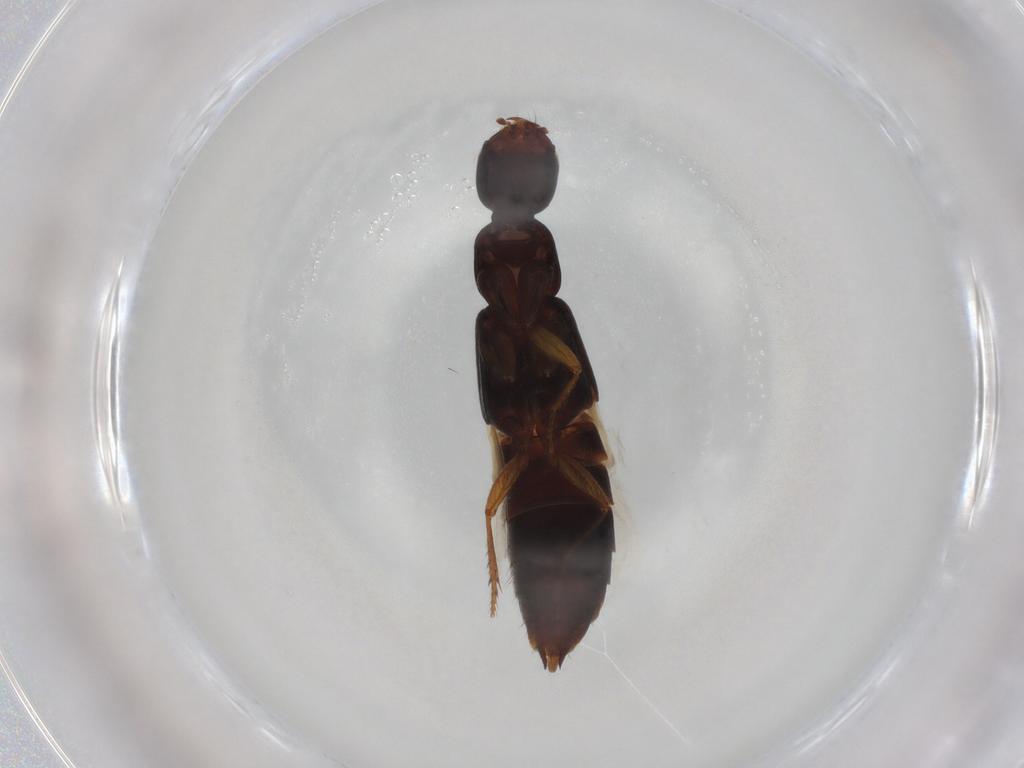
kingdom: Animalia
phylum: Arthropoda
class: Insecta
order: Coleoptera
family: Staphylinidae
